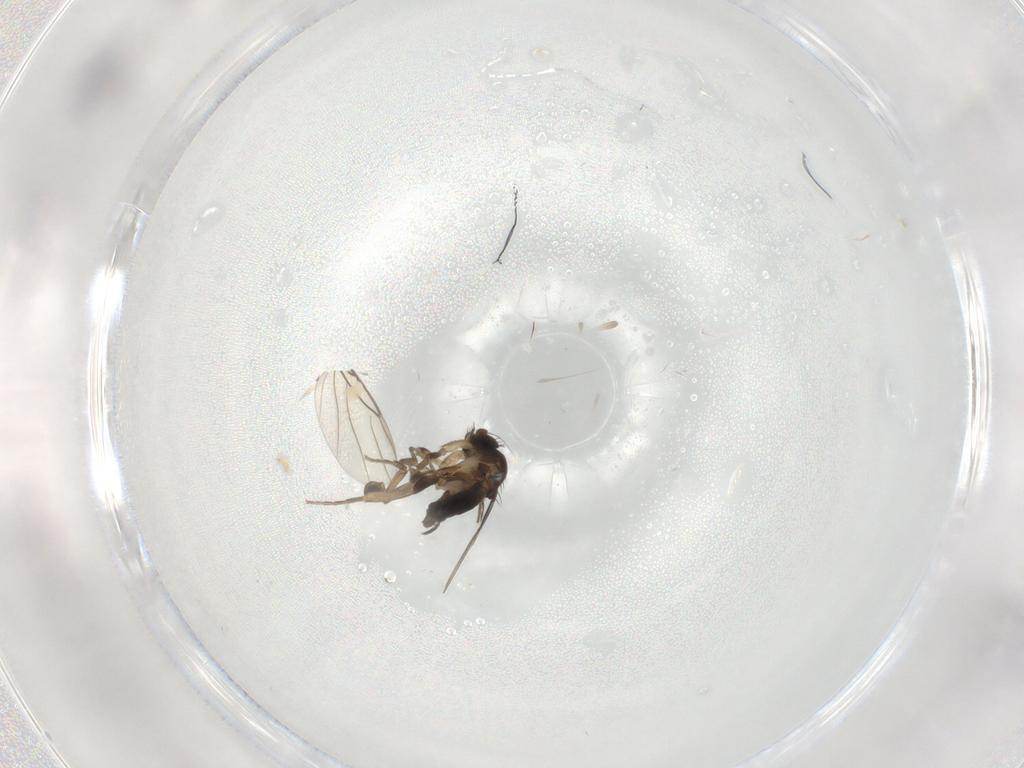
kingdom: Animalia
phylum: Arthropoda
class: Insecta
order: Diptera
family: Phoridae
